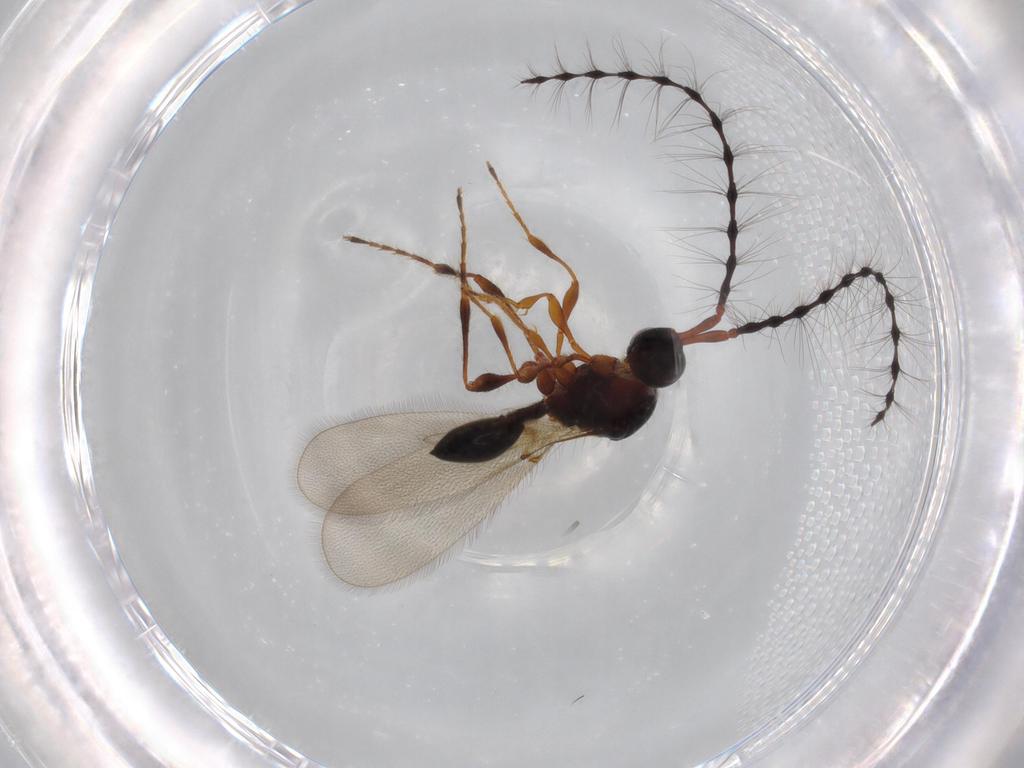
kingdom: Animalia
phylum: Arthropoda
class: Insecta
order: Hymenoptera
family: Diapriidae
